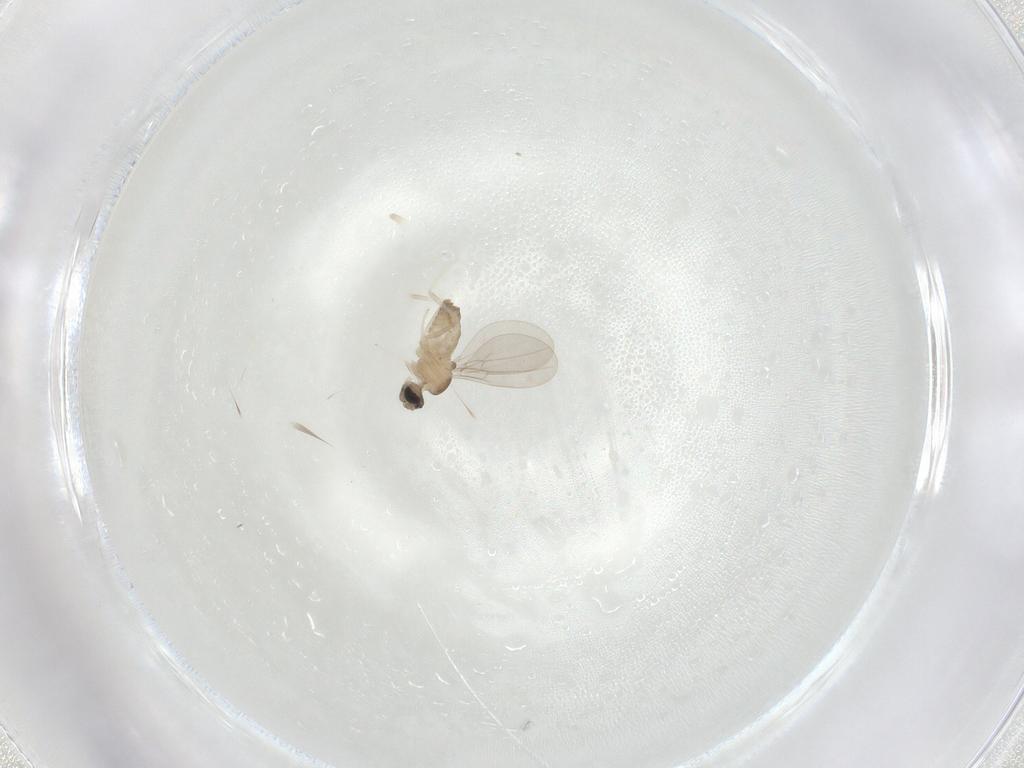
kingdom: Animalia
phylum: Arthropoda
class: Insecta
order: Diptera
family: Cecidomyiidae
